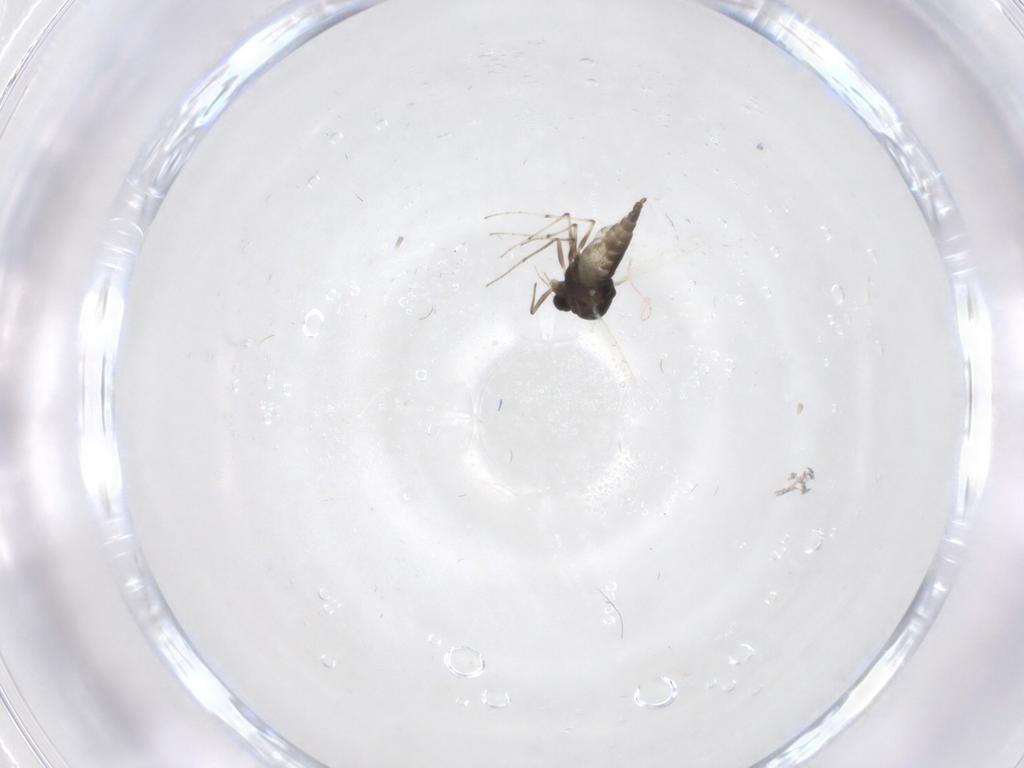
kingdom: Animalia
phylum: Arthropoda
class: Insecta
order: Diptera
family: Chironomidae
